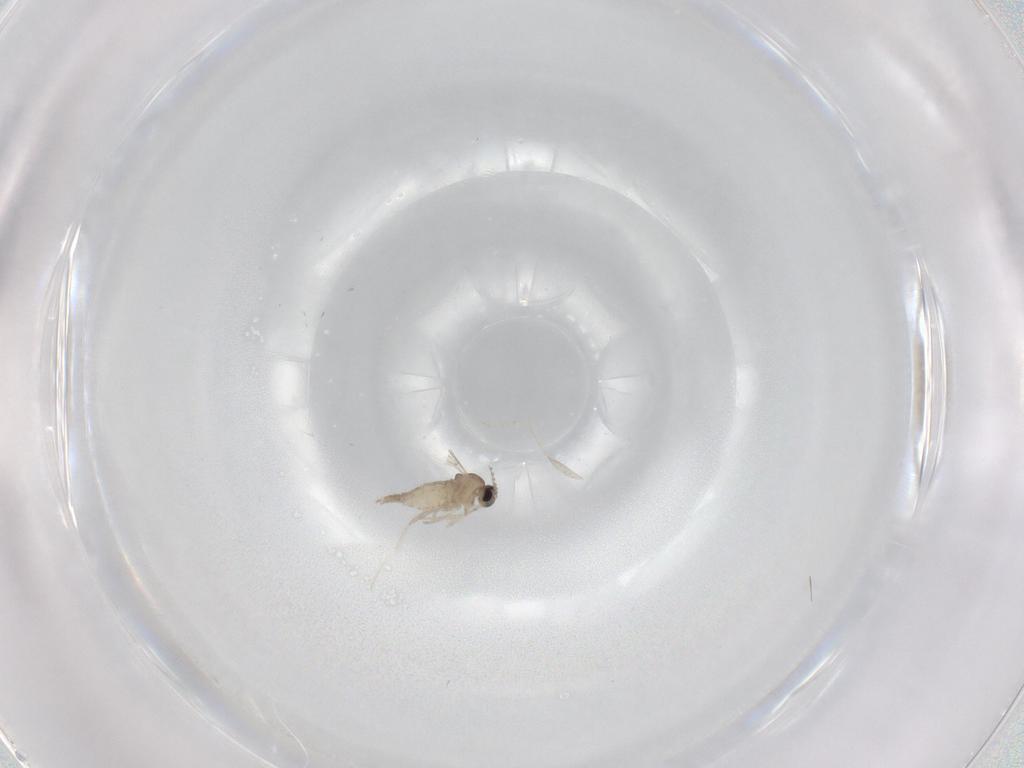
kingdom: Animalia
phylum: Arthropoda
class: Insecta
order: Diptera
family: Cecidomyiidae
